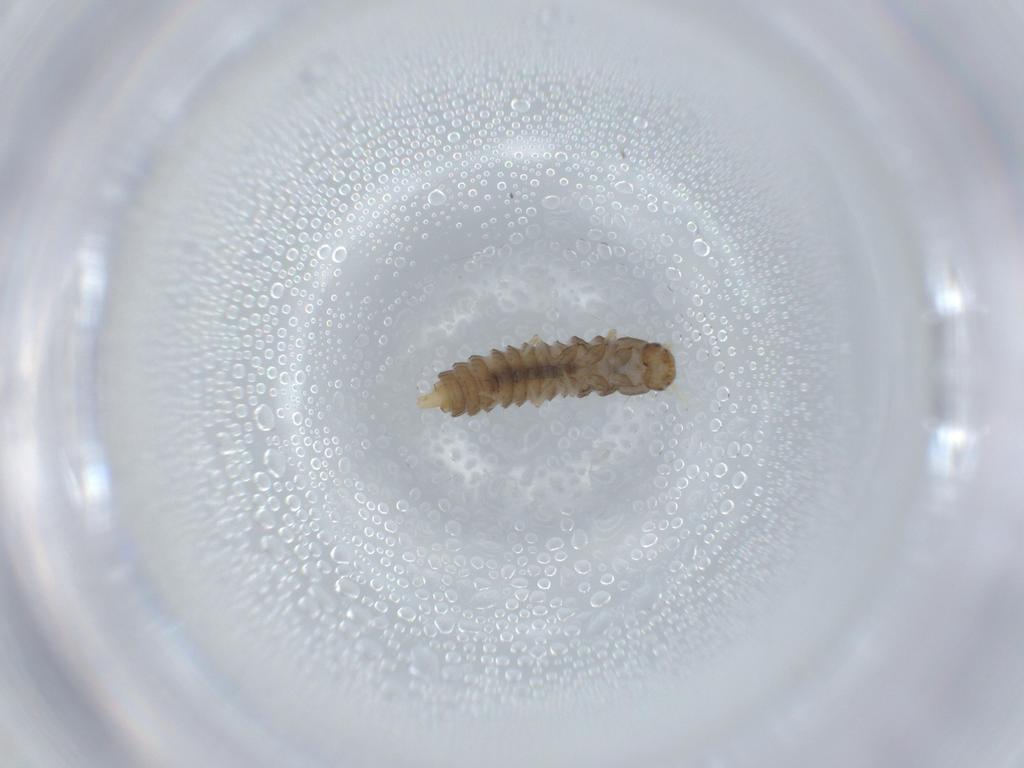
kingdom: Animalia
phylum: Arthropoda
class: Insecta
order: Coleoptera
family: Staphylinidae
